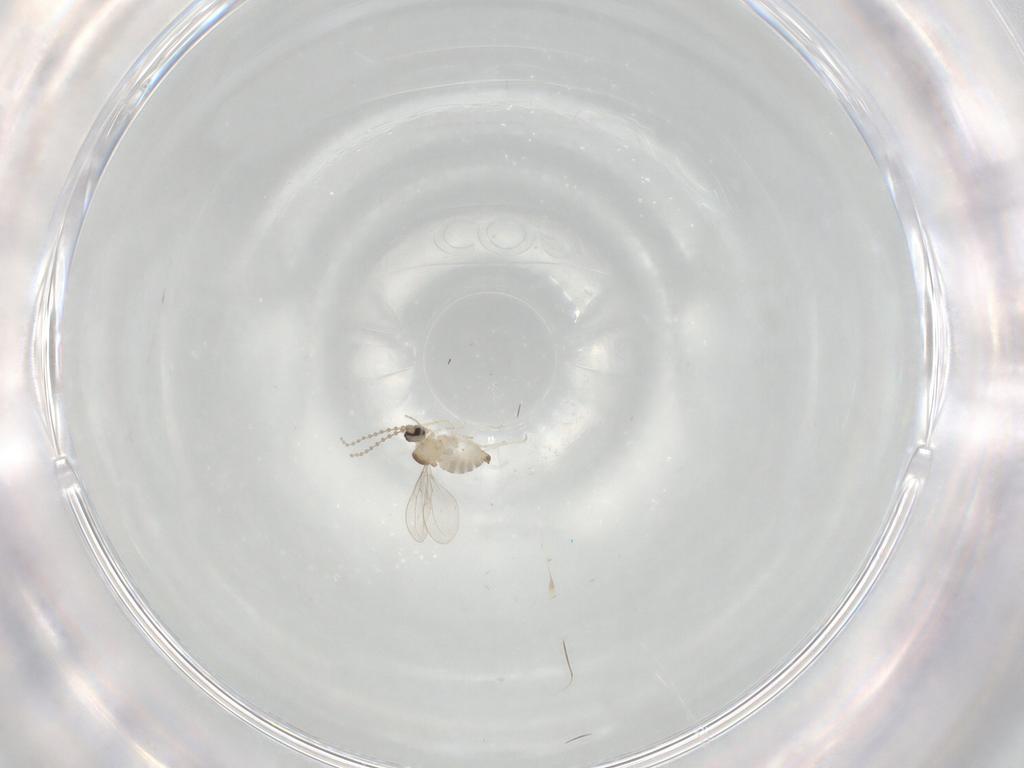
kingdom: Animalia
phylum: Arthropoda
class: Insecta
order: Diptera
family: Cecidomyiidae
